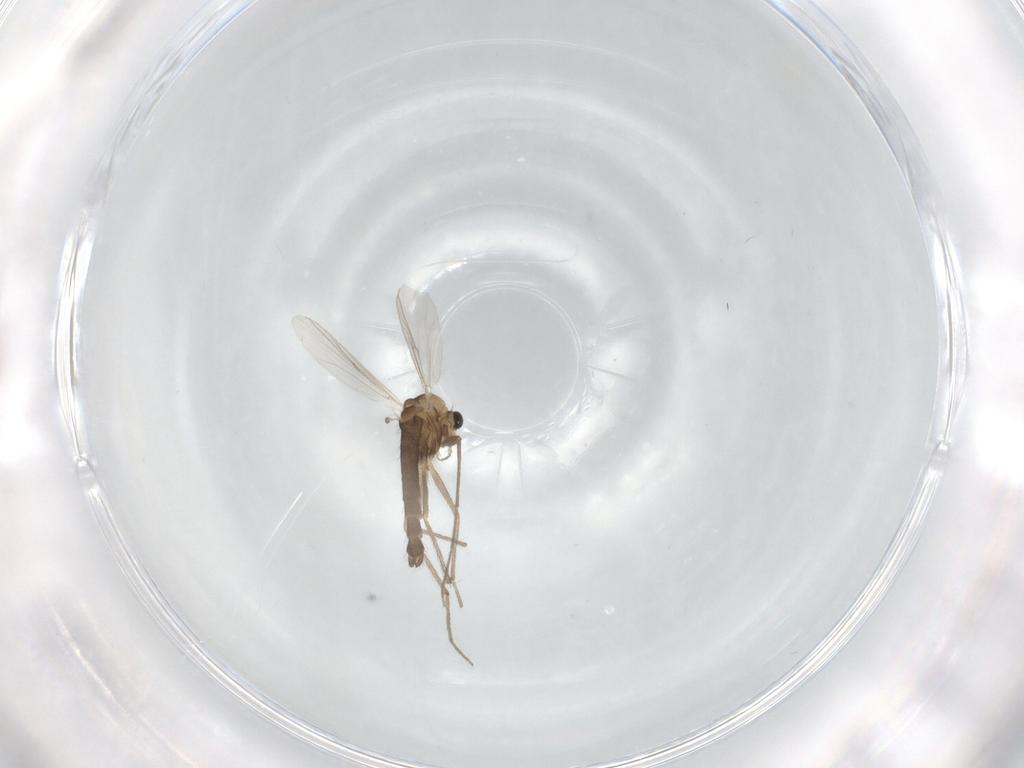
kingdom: Animalia
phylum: Arthropoda
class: Insecta
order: Diptera
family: Chironomidae
